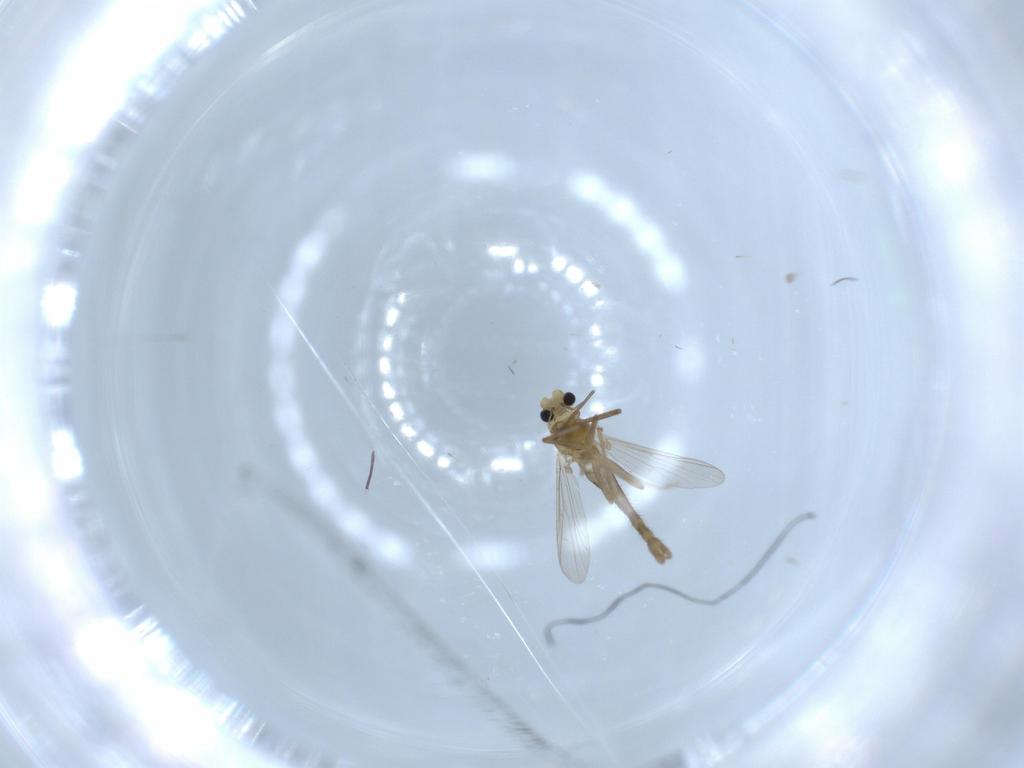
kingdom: Animalia
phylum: Arthropoda
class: Insecta
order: Diptera
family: Chironomidae
